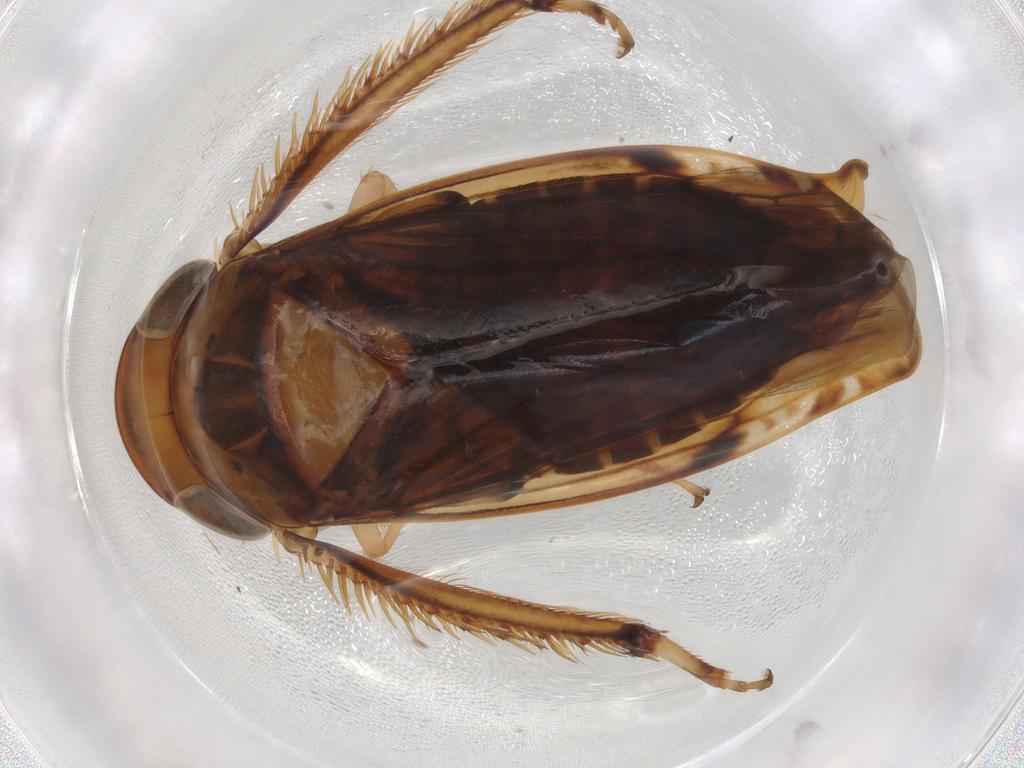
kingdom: Animalia
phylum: Arthropoda
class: Insecta
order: Hemiptera
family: Cicadellidae
